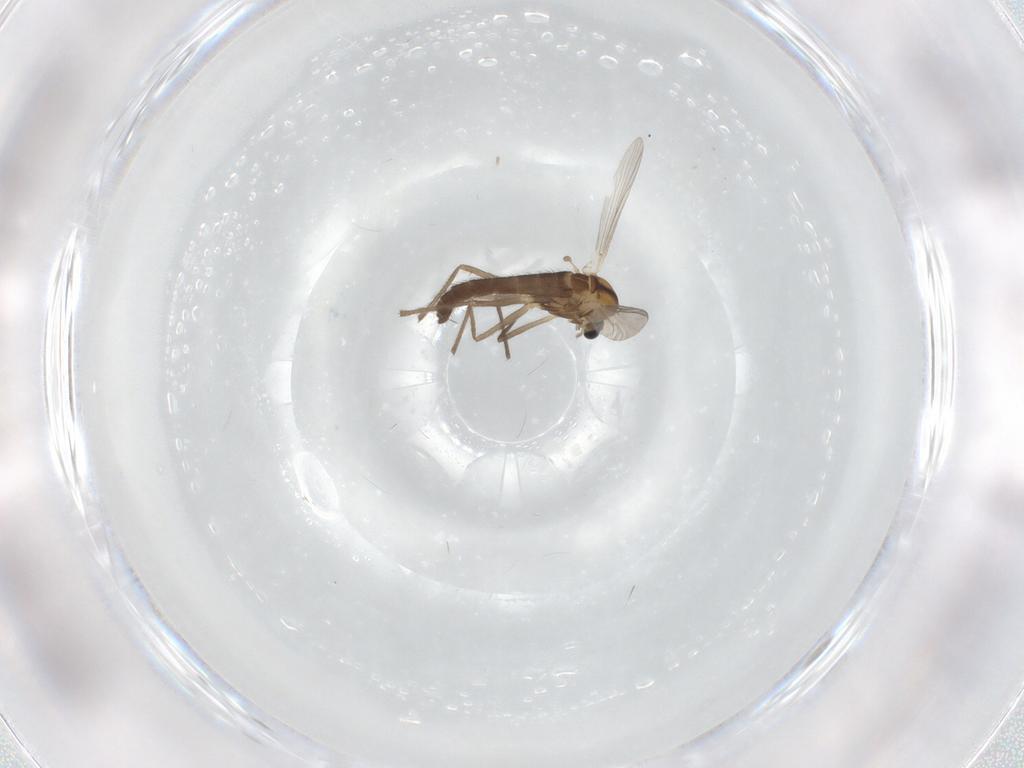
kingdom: Animalia
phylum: Arthropoda
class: Insecta
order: Diptera
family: Chironomidae
